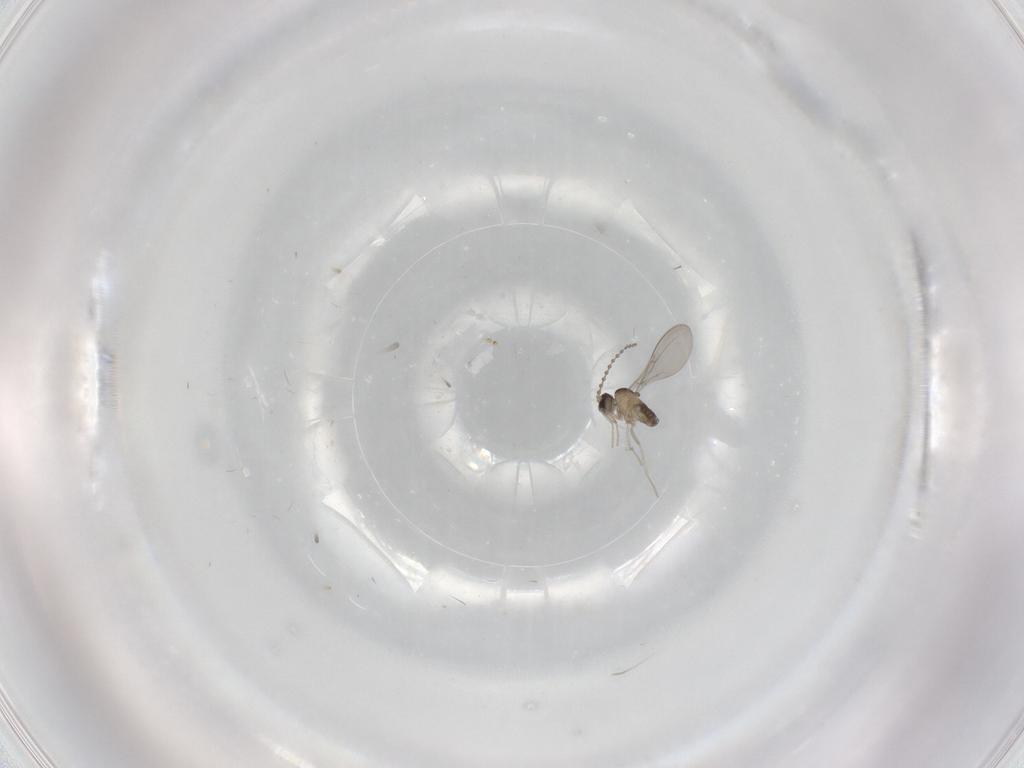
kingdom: Animalia
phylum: Arthropoda
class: Insecta
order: Diptera
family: Cecidomyiidae
